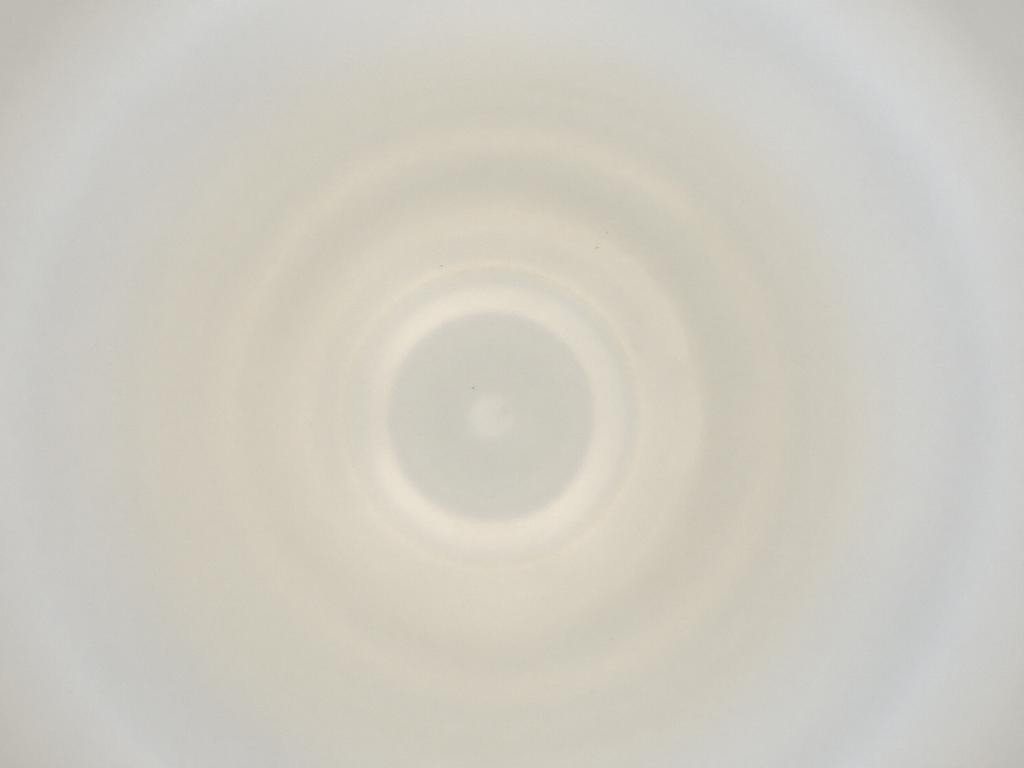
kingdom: Animalia
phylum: Arthropoda
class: Insecta
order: Diptera
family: Cecidomyiidae
